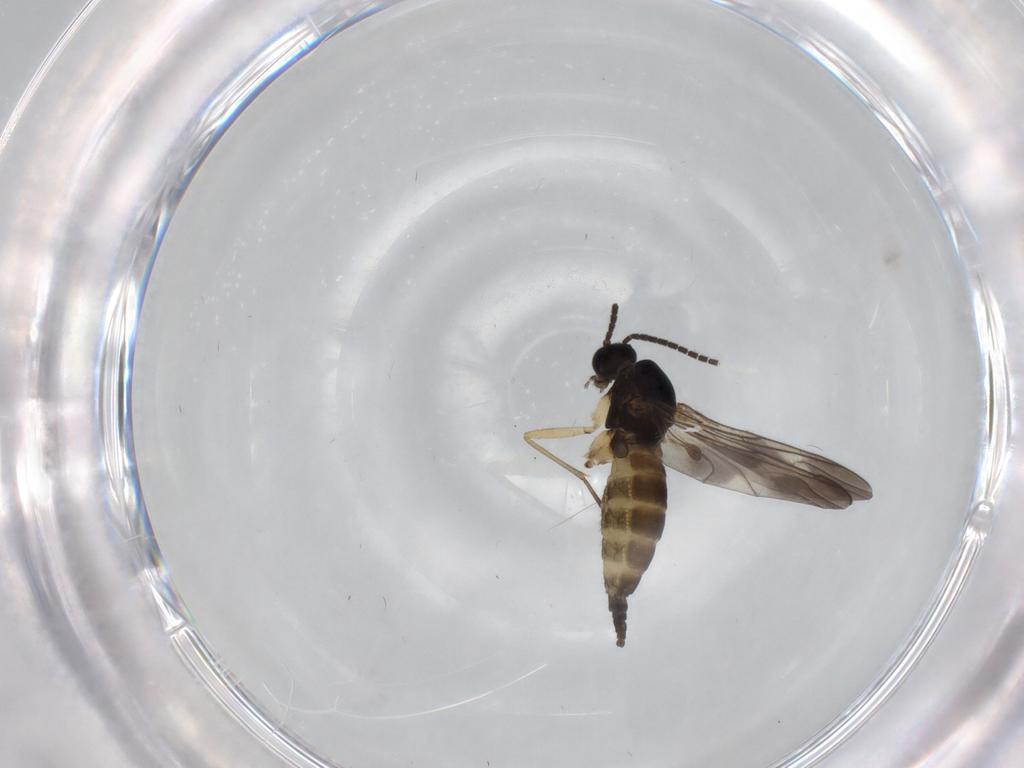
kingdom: Animalia
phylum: Arthropoda
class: Insecta
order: Diptera
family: Sciaridae
